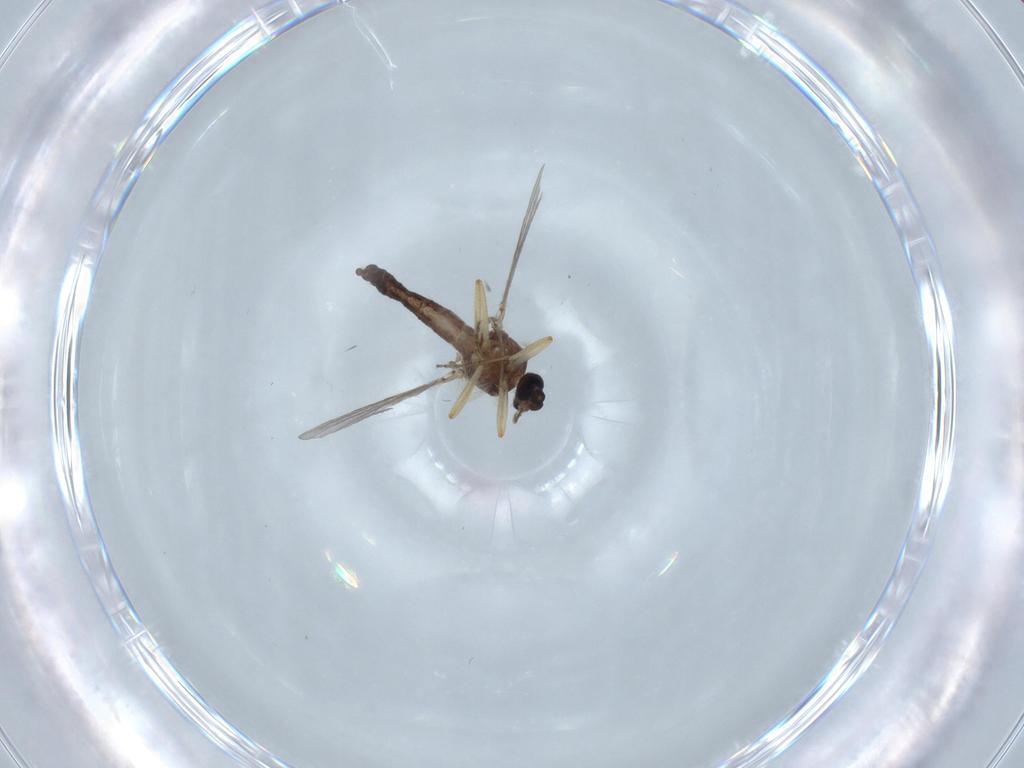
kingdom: Animalia
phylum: Arthropoda
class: Insecta
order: Diptera
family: Ceratopogonidae
